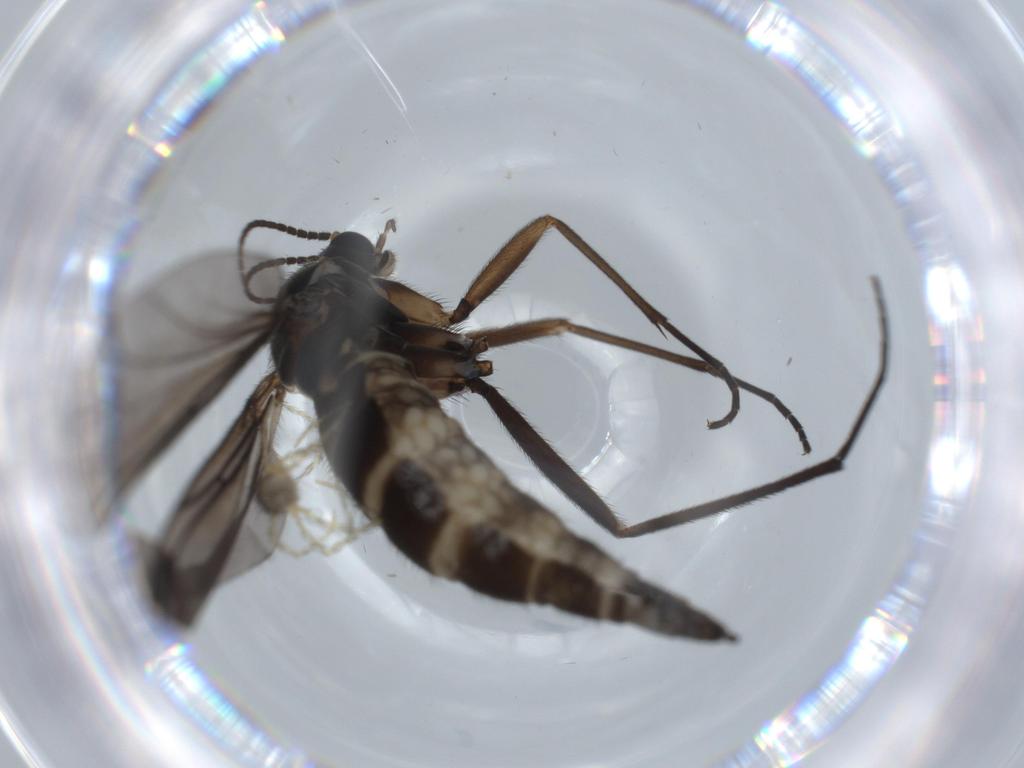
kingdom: Animalia
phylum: Arthropoda
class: Insecta
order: Diptera
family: Sciaridae
